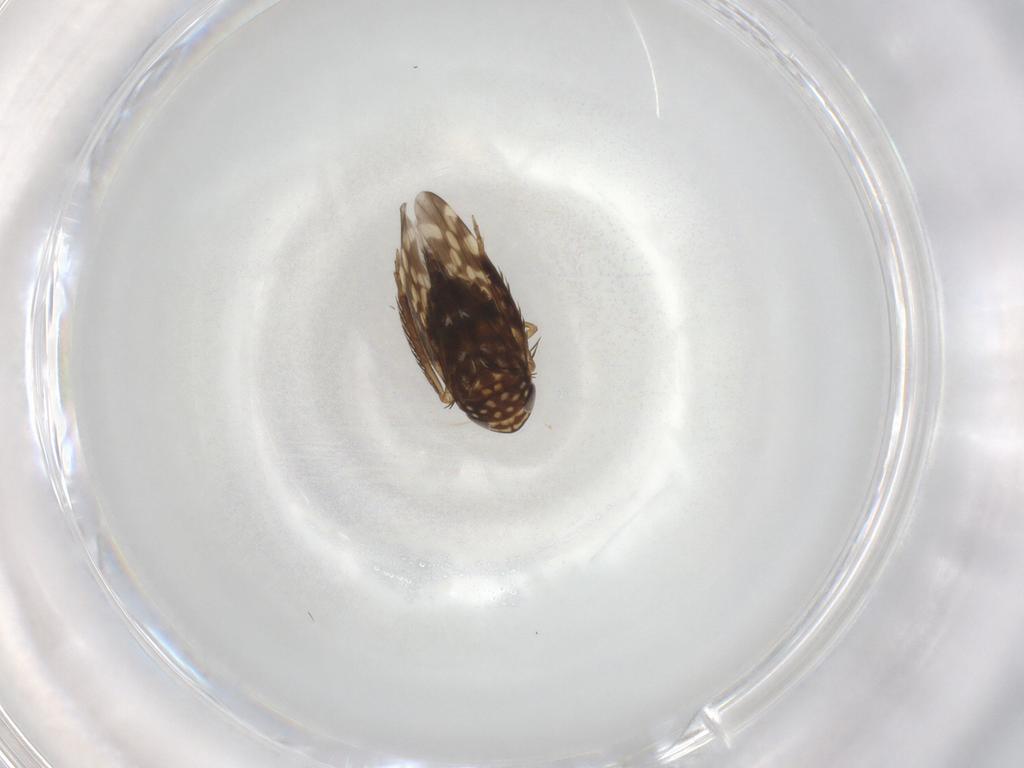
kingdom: Animalia
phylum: Arthropoda
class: Insecta
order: Hemiptera
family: Cicadellidae
